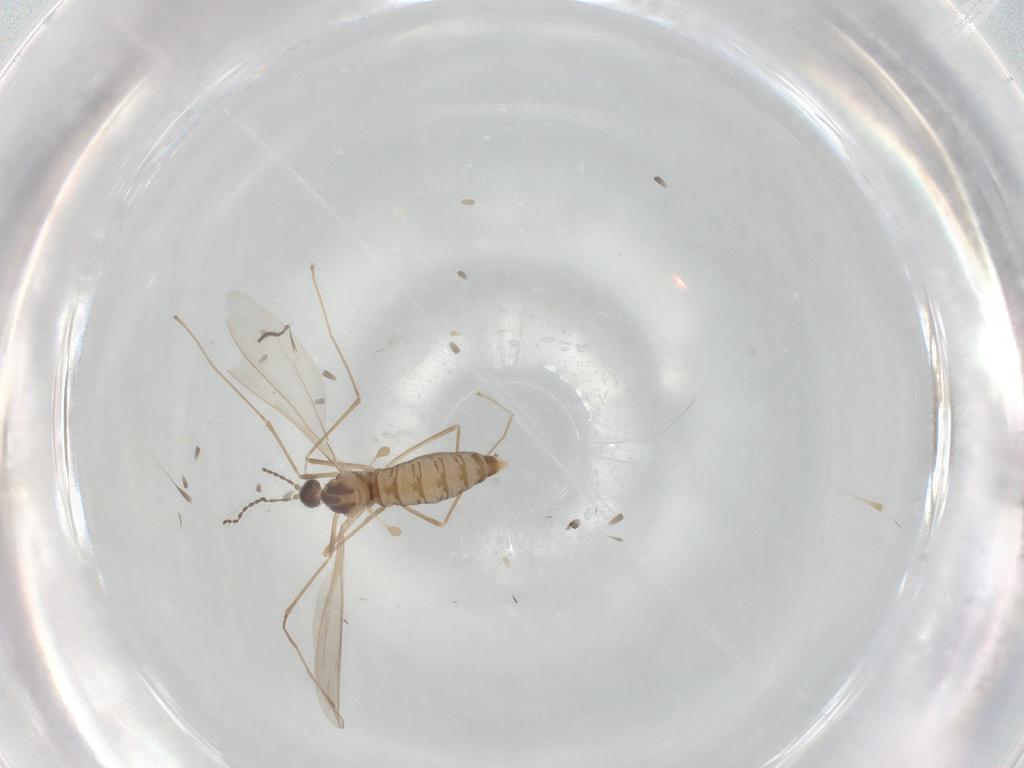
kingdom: Animalia
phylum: Arthropoda
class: Insecta
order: Diptera
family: Cecidomyiidae
